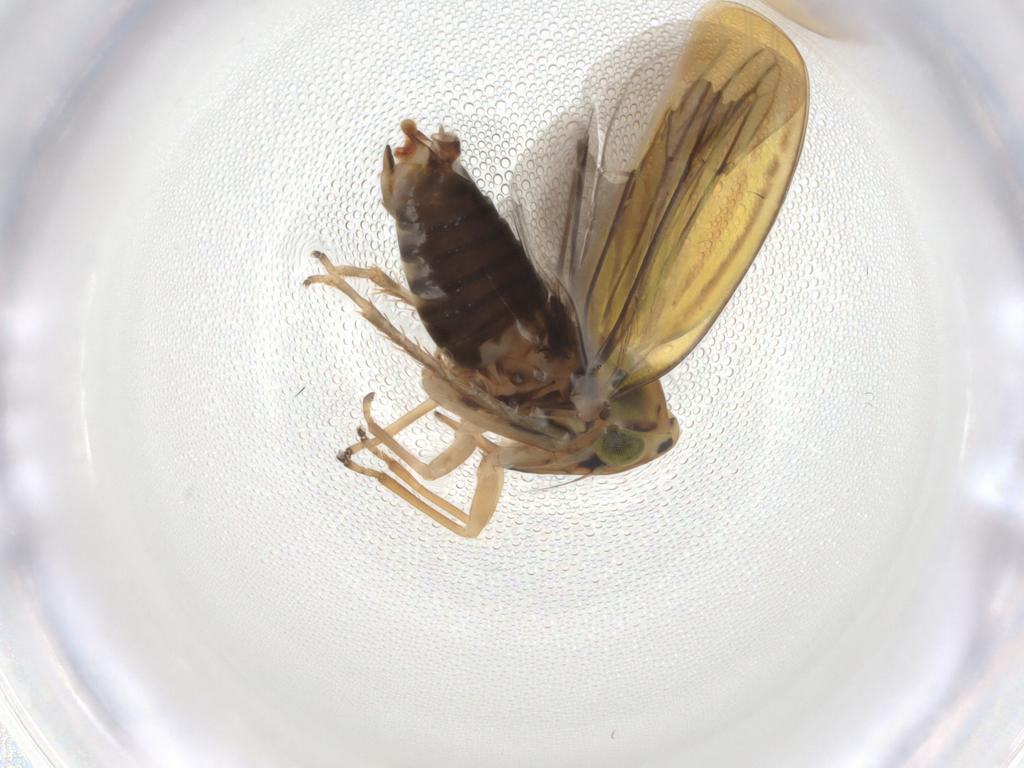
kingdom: Animalia
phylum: Arthropoda
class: Insecta
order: Hemiptera
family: Cicadellidae
